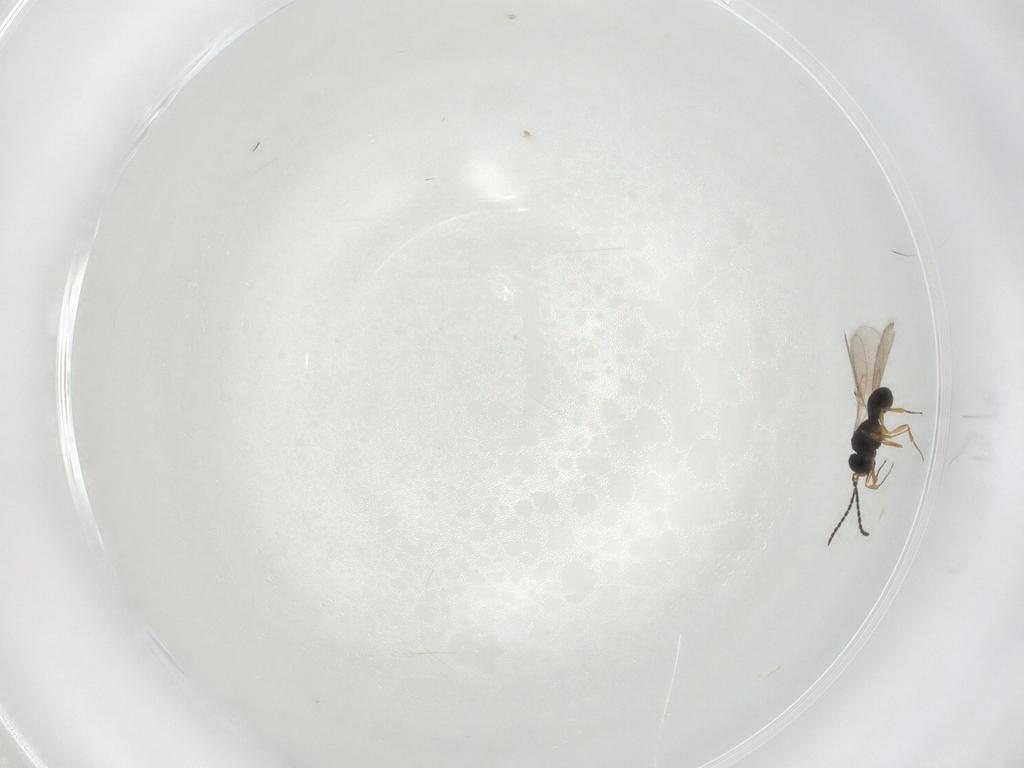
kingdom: Animalia
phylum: Arthropoda
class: Insecta
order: Hymenoptera
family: Scelionidae
